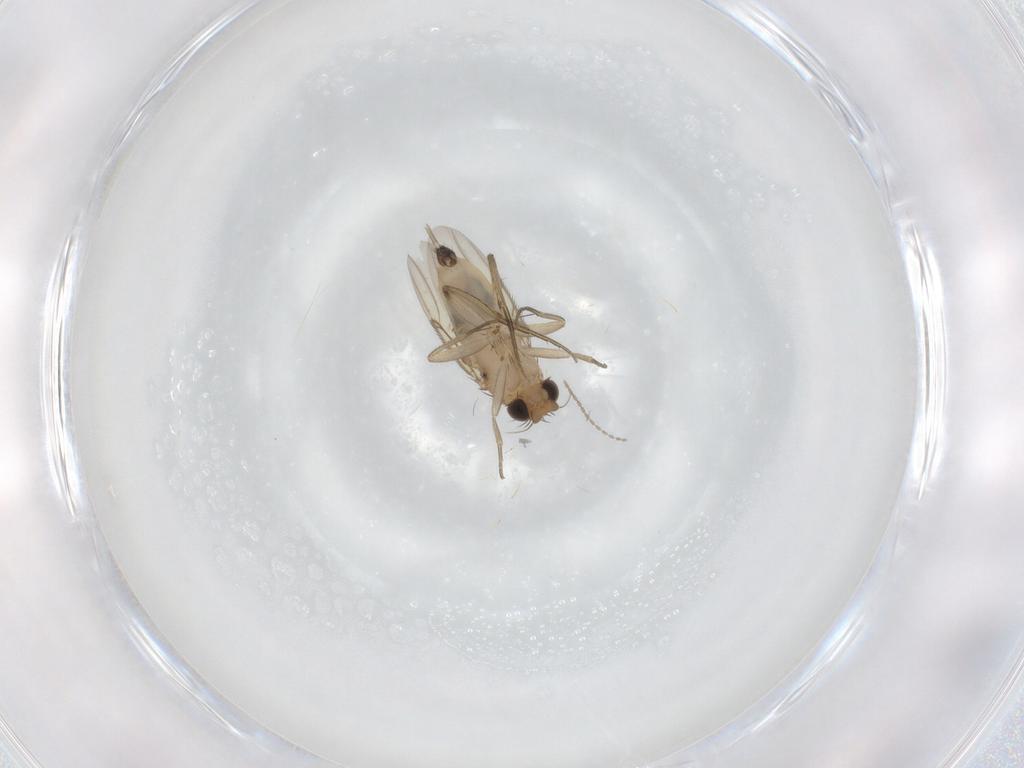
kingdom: Animalia
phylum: Arthropoda
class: Insecta
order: Diptera
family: Phoridae
